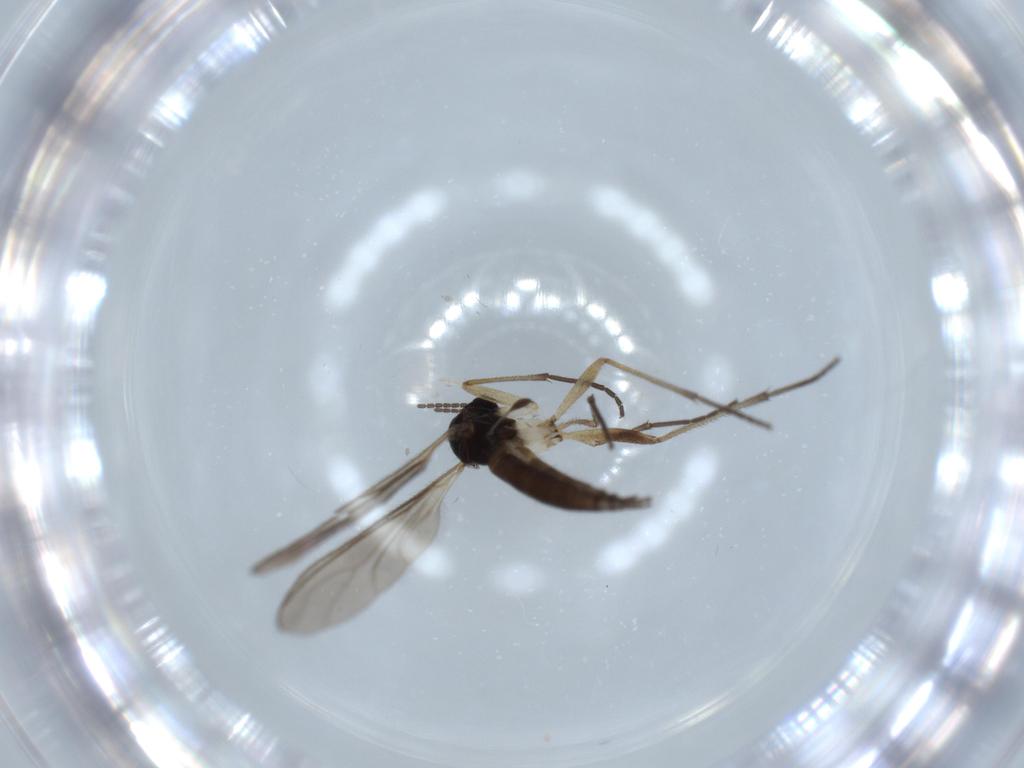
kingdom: Animalia
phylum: Arthropoda
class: Insecta
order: Diptera
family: Sciaridae
